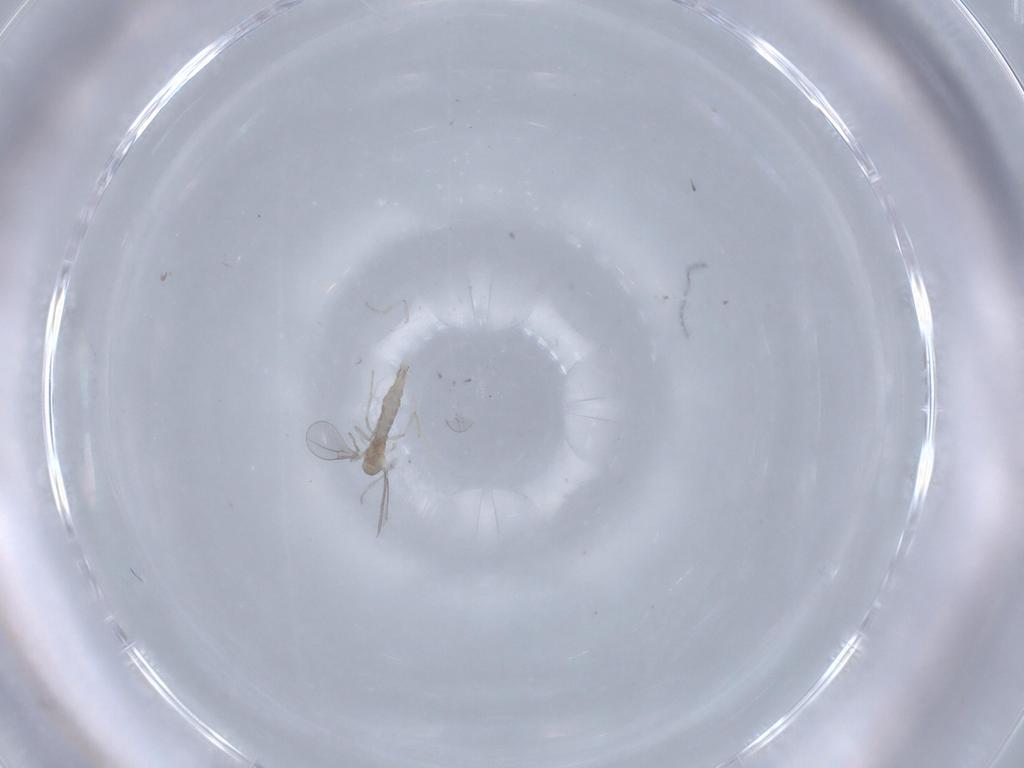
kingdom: Animalia
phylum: Arthropoda
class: Insecta
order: Diptera
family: Cecidomyiidae
